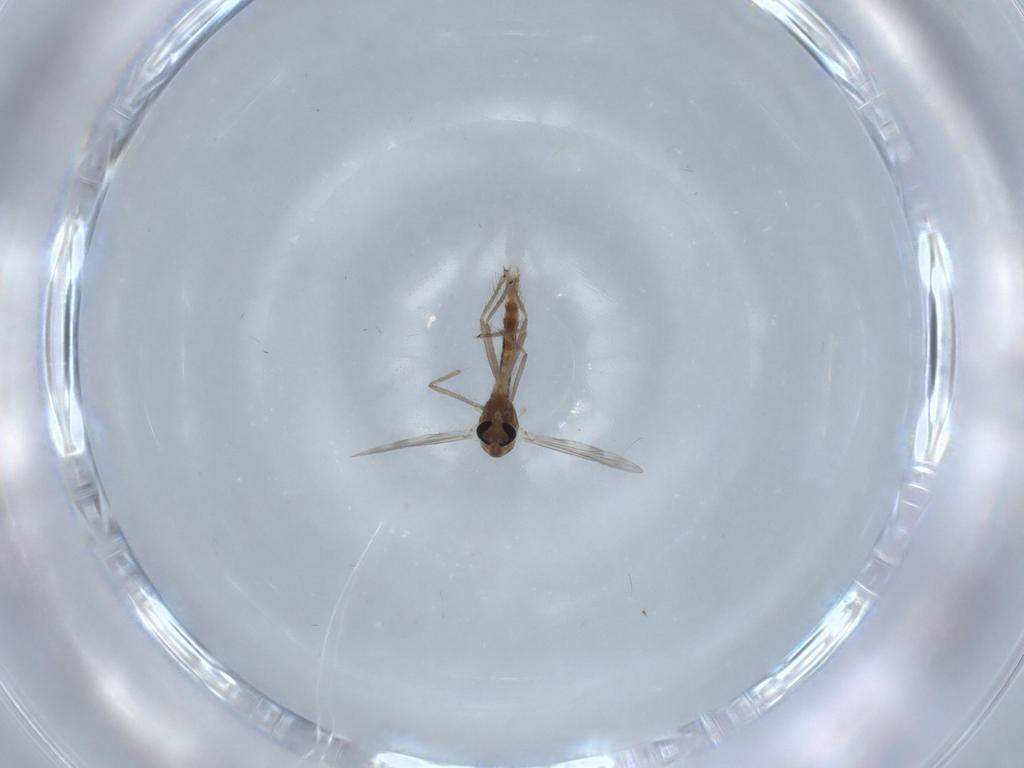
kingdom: Animalia
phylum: Arthropoda
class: Insecta
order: Diptera
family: Chironomidae
